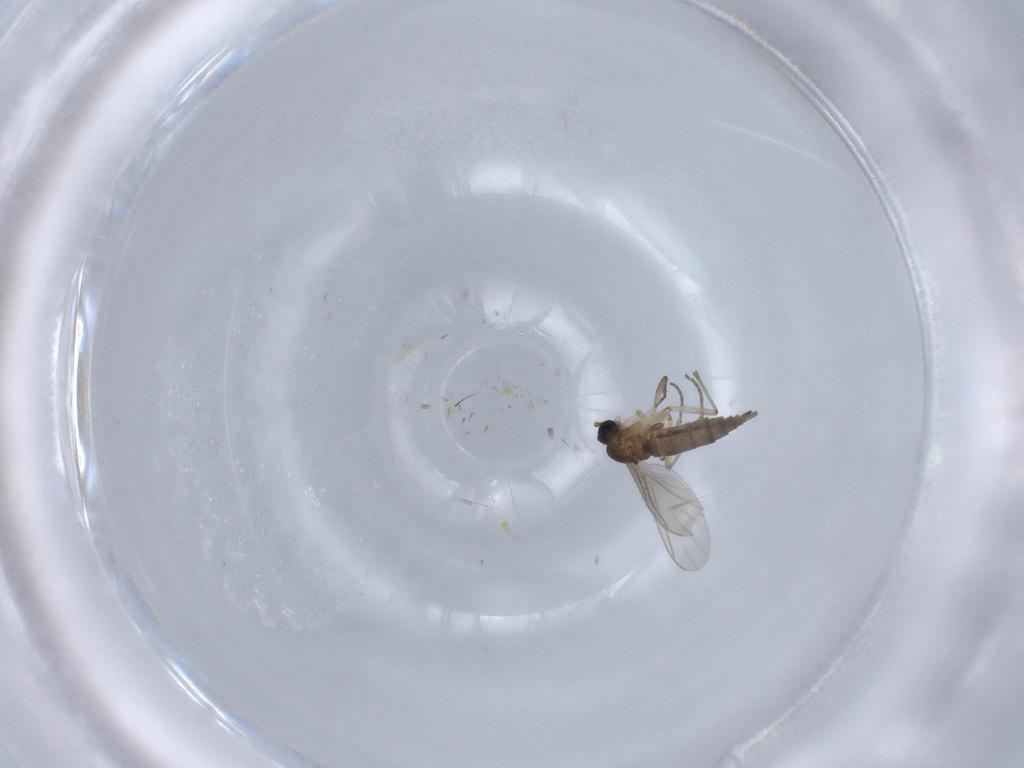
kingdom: Animalia
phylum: Arthropoda
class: Insecta
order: Diptera
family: Sciaridae
